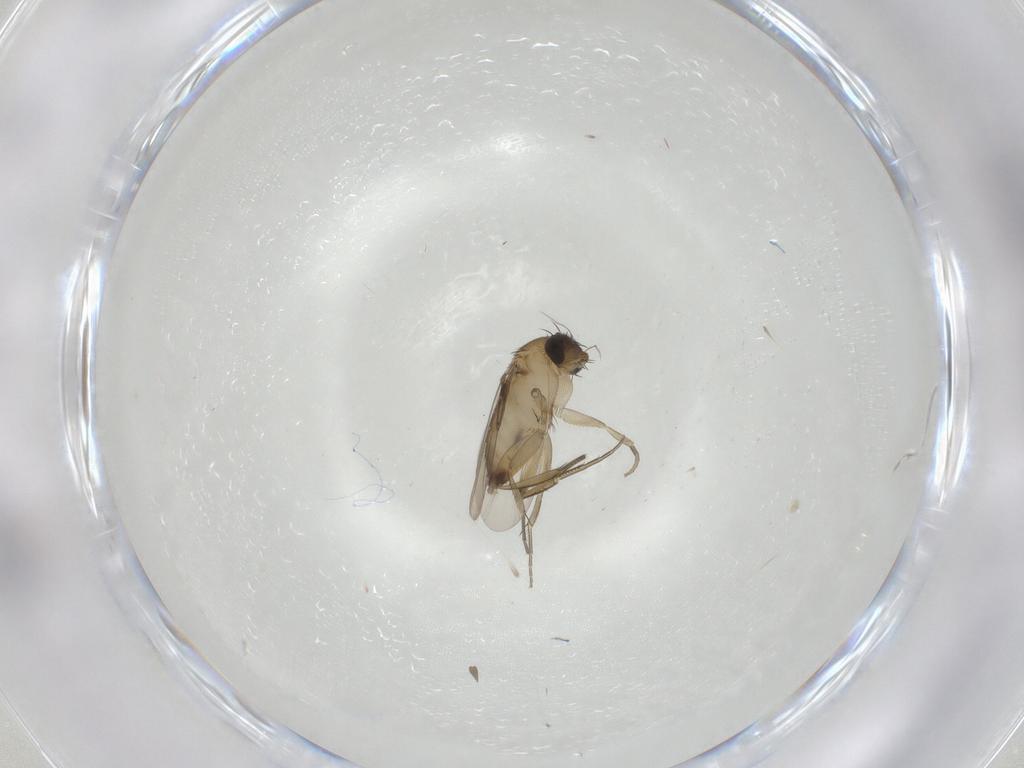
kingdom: Animalia
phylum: Arthropoda
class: Insecta
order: Diptera
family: Phoridae
